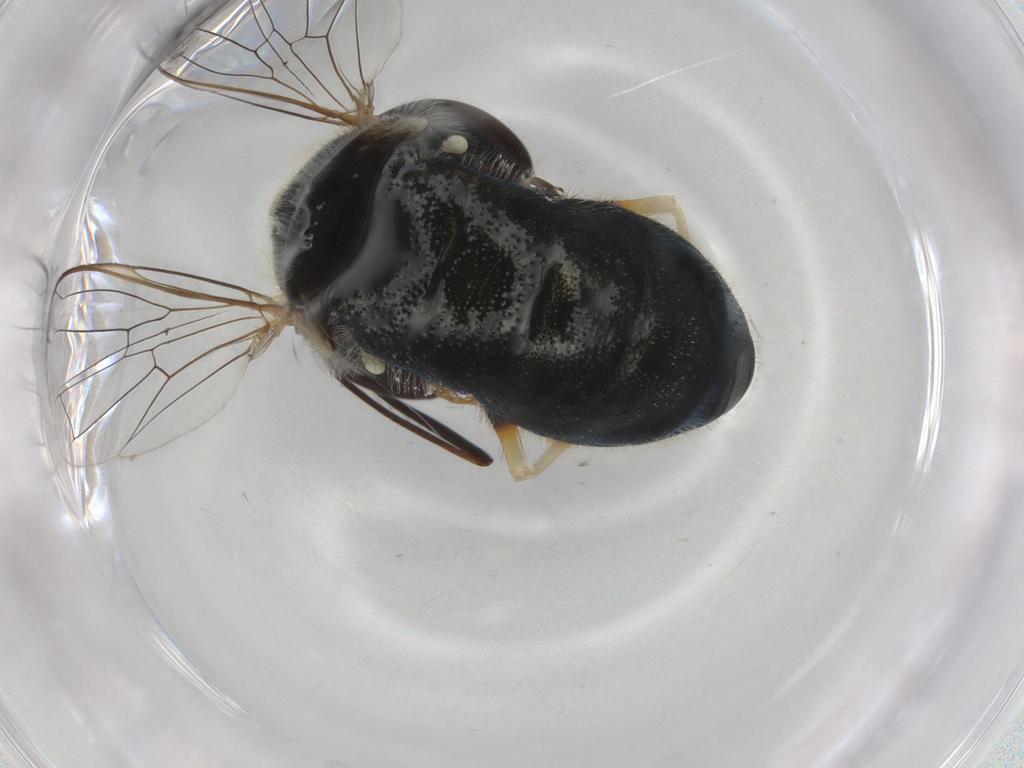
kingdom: Animalia
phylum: Arthropoda
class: Insecta
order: Diptera
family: Syrphidae
